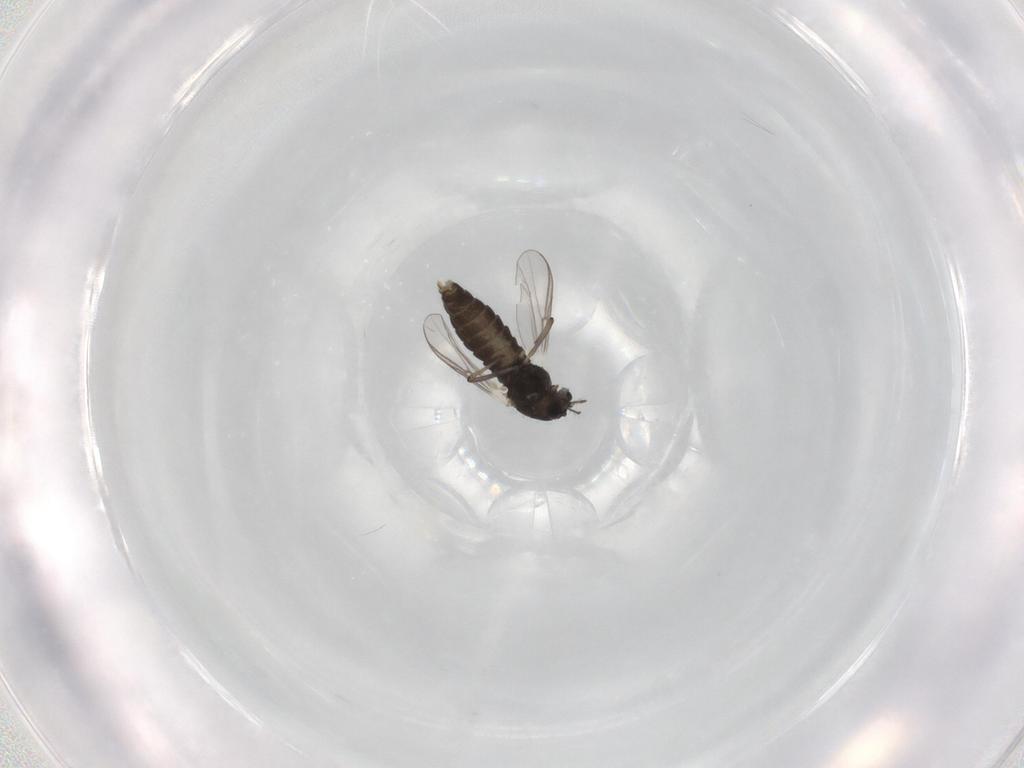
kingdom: Animalia
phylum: Arthropoda
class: Insecta
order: Diptera
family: Chironomidae
